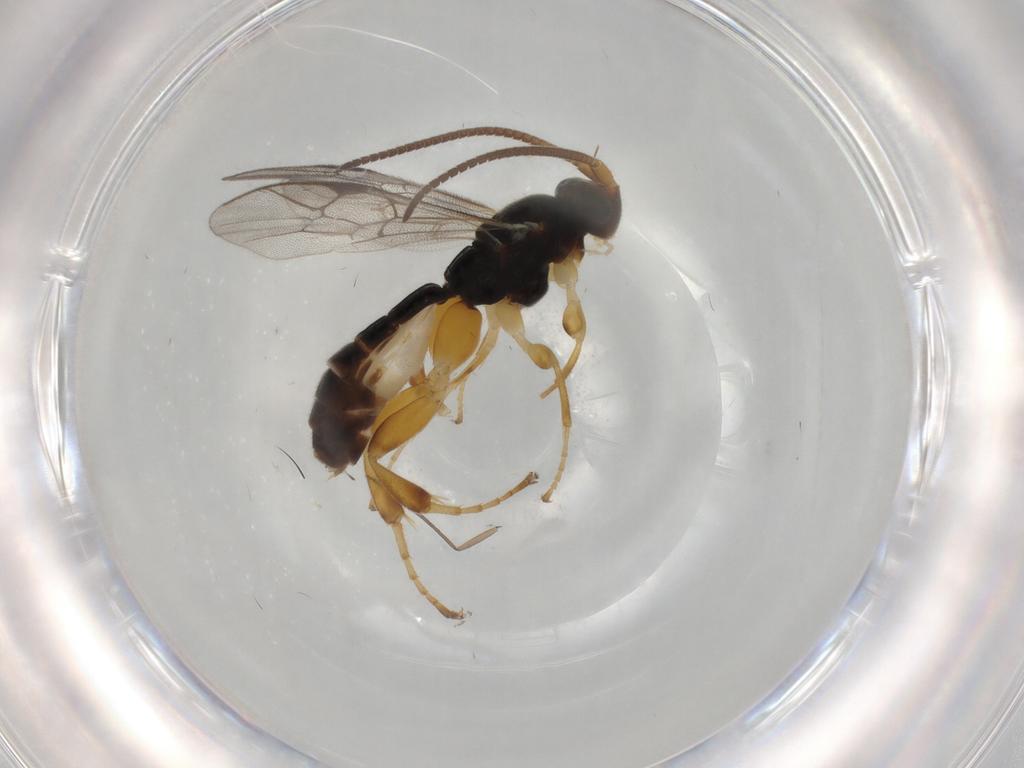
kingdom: Animalia
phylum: Arthropoda
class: Insecta
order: Hymenoptera
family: Ichneumonidae
